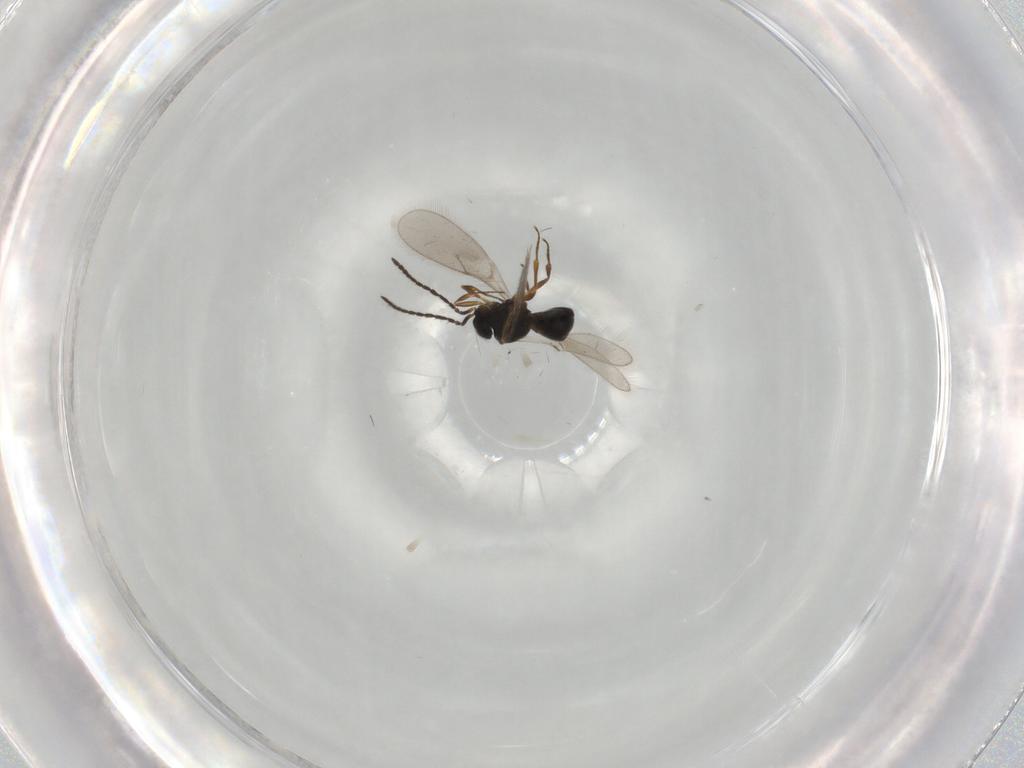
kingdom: Animalia
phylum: Arthropoda
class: Insecta
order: Hymenoptera
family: Scelionidae
